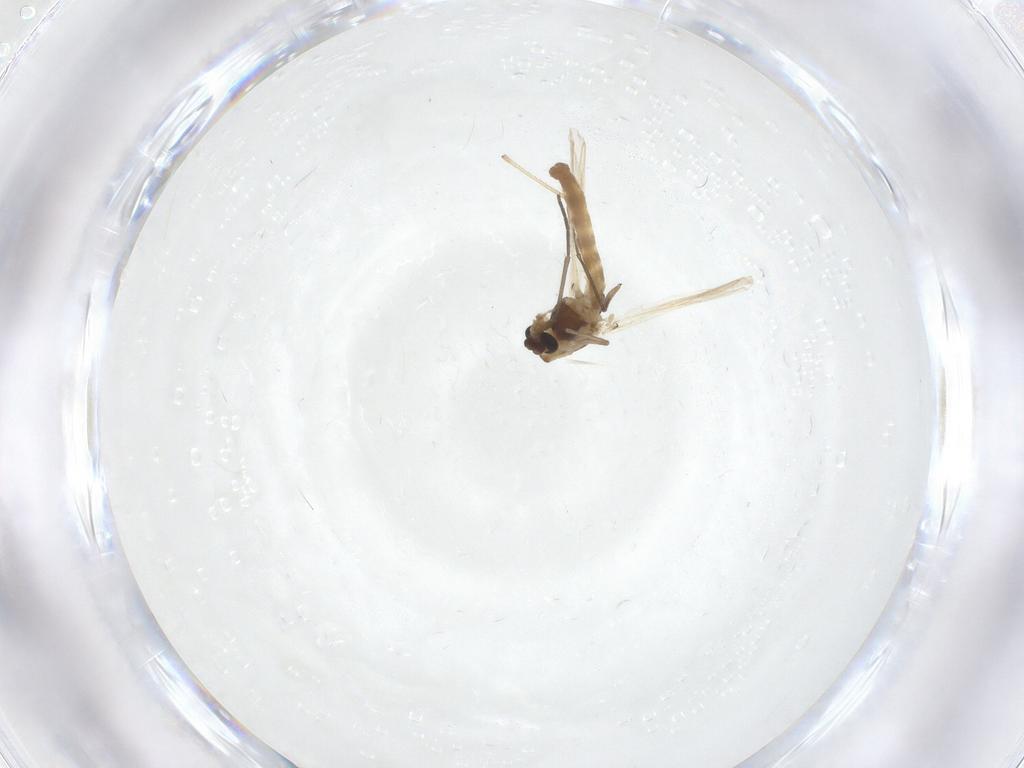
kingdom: Animalia
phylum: Arthropoda
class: Insecta
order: Diptera
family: Chironomidae
